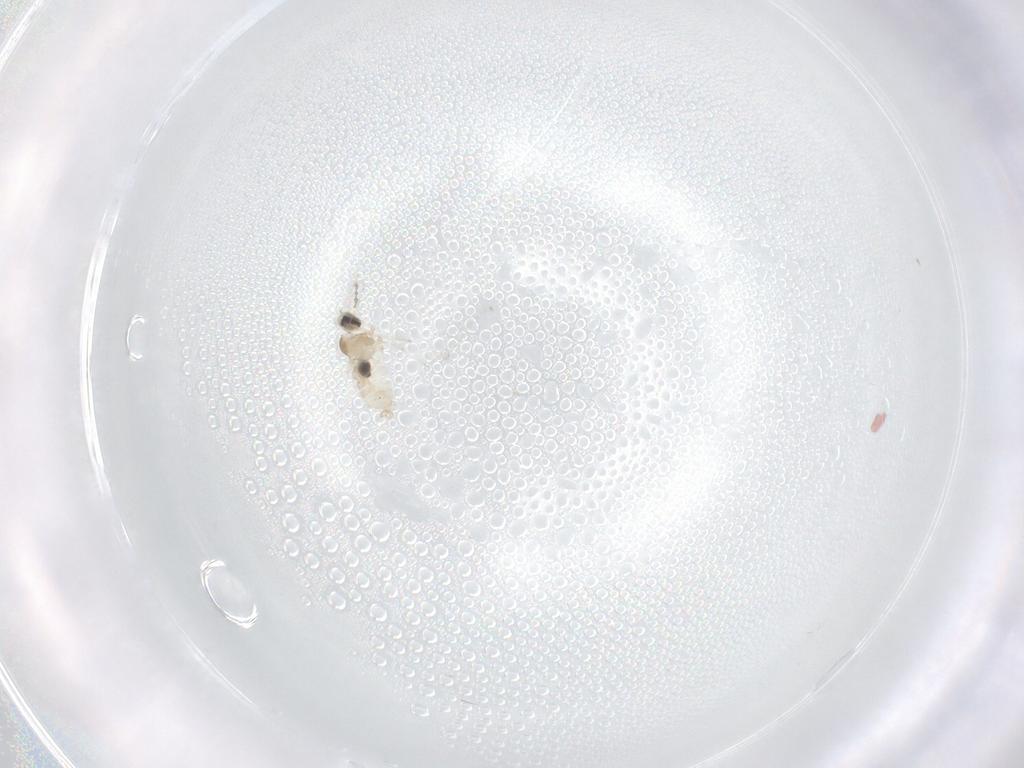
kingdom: Animalia
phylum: Arthropoda
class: Insecta
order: Diptera
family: Cecidomyiidae
